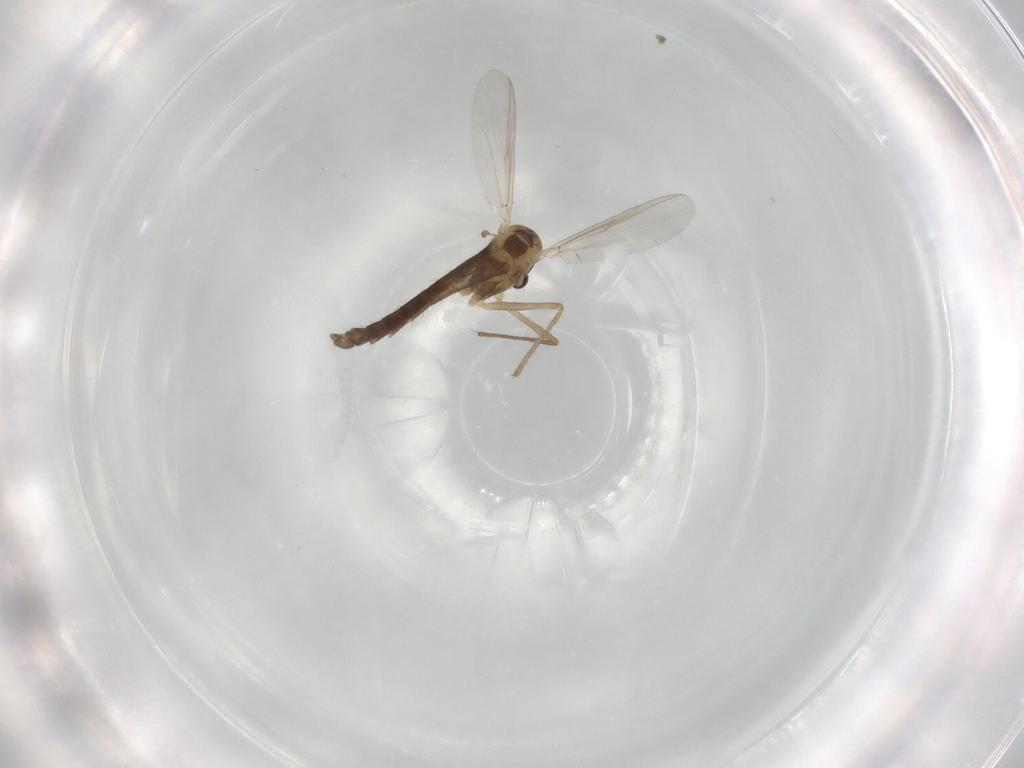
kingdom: Animalia
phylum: Arthropoda
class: Insecta
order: Diptera
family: Chironomidae
